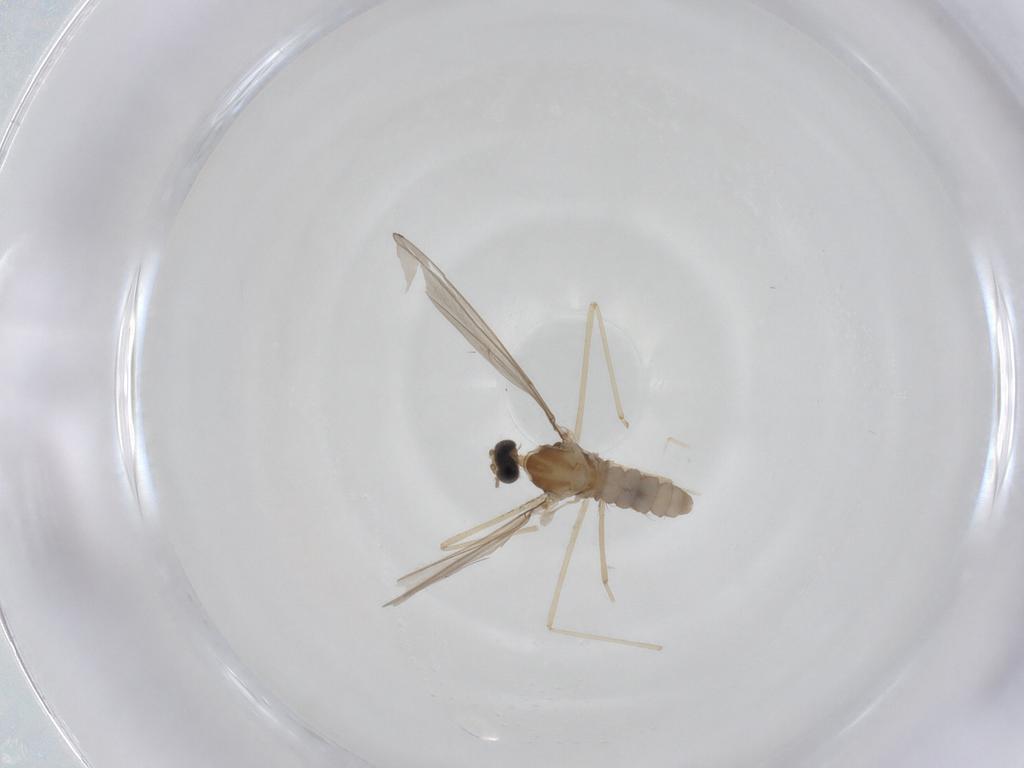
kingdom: Animalia
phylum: Arthropoda
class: Insecta
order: Diptera
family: Cecidomyiidae
